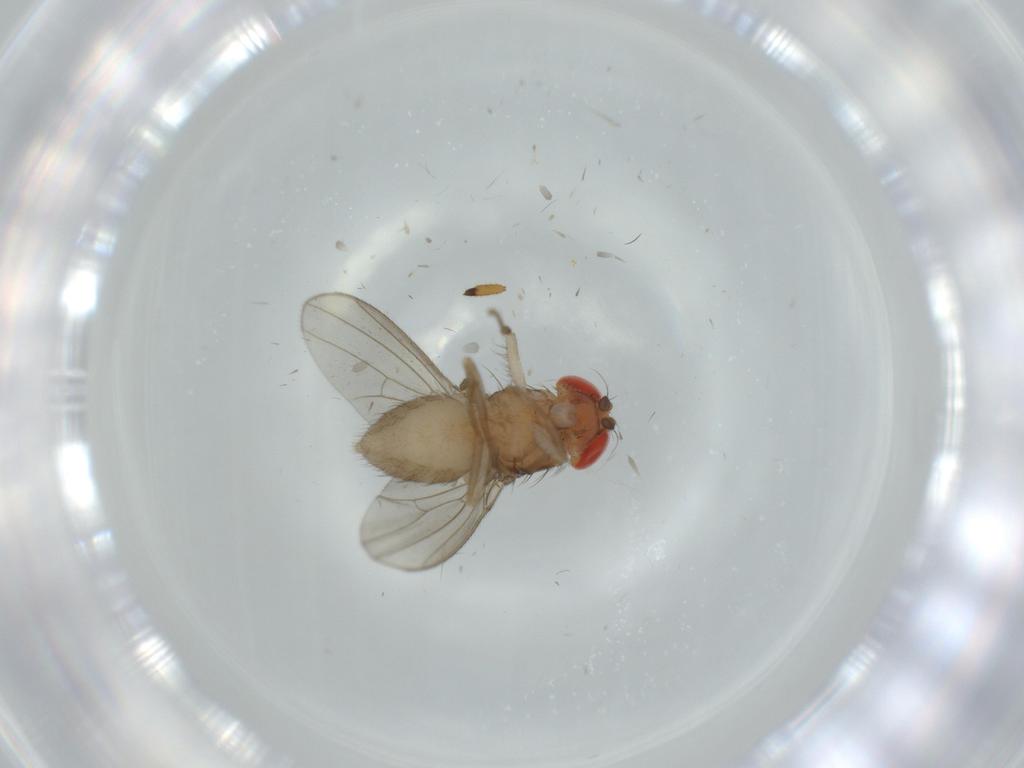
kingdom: Animalia
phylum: Arthropoda
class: Insecta
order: Diptera
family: Drosophilidae
